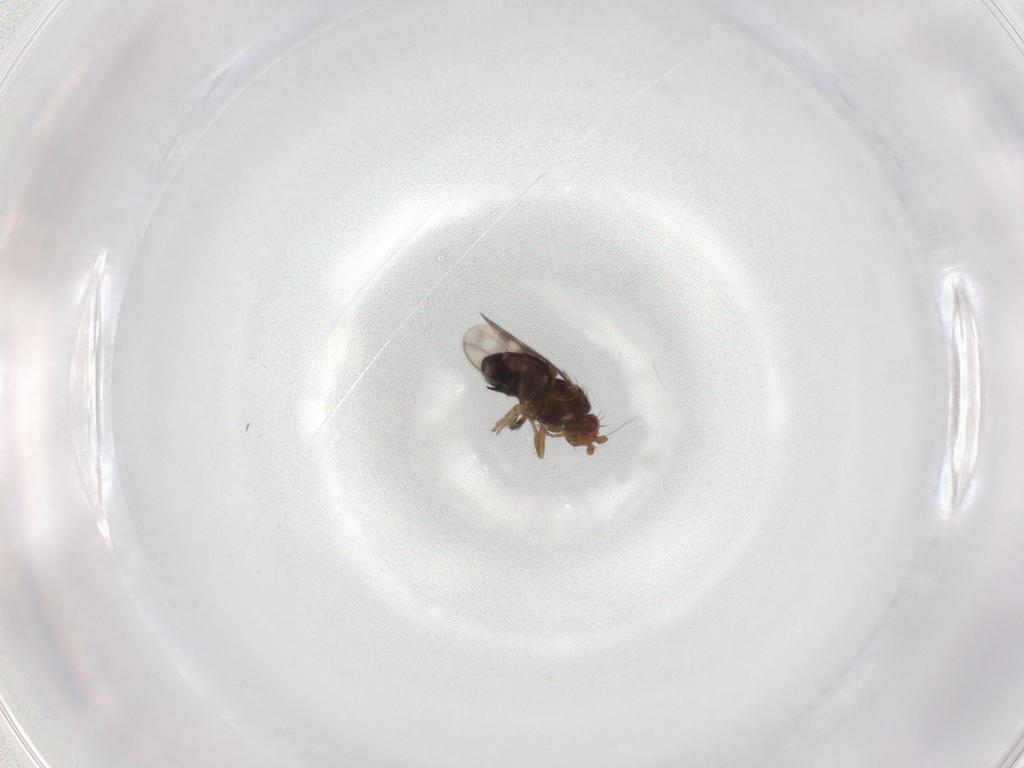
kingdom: Animalia
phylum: Arthropoda
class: Insecta
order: Diptera
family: Sphaeroceridae
